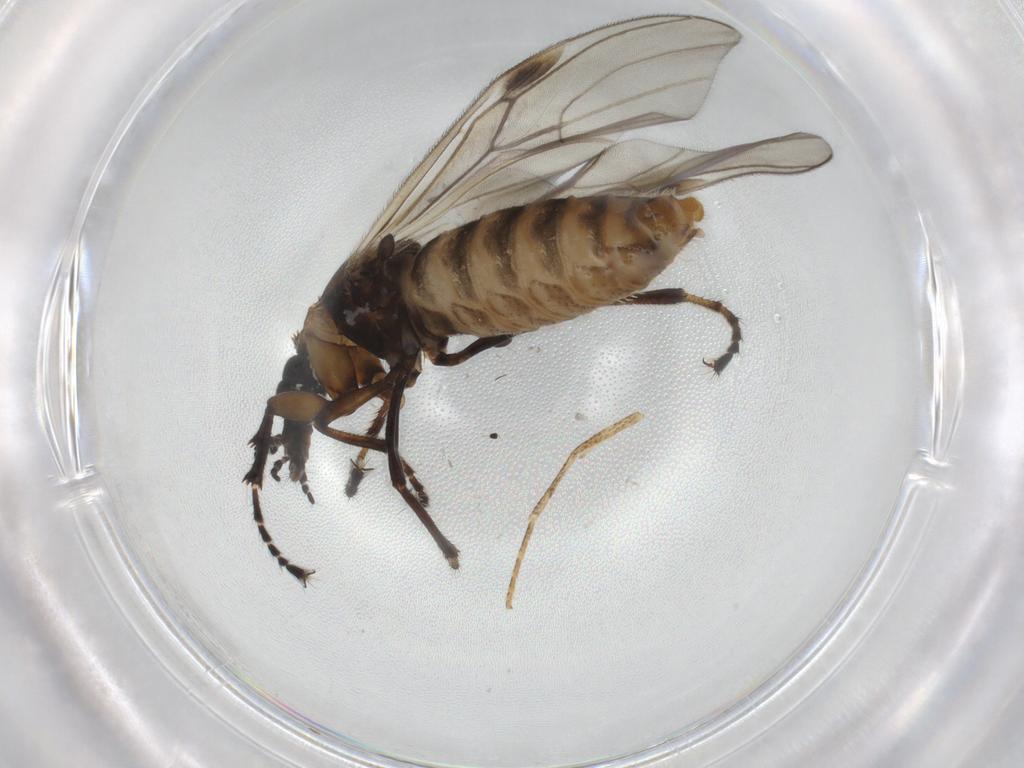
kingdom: Animalia
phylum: Arthropoda
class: Insecta
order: Diptera
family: Bibionidae
